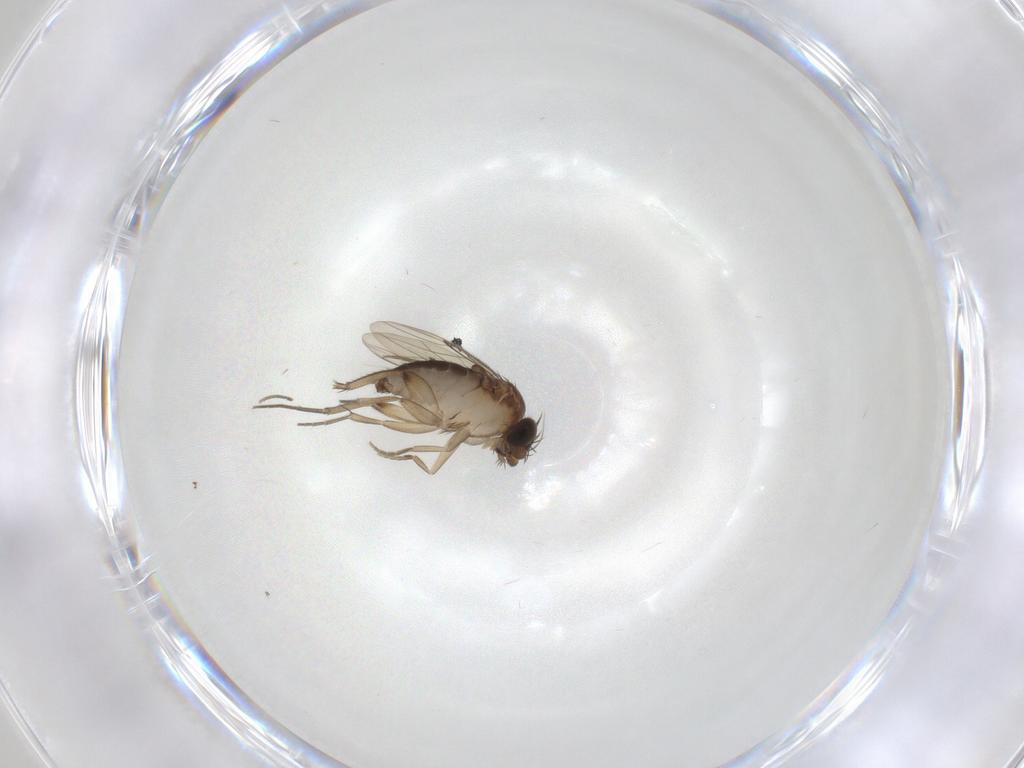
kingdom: Animalia
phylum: Arthropoda
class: Insecta
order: Diptera
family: Phoridae
